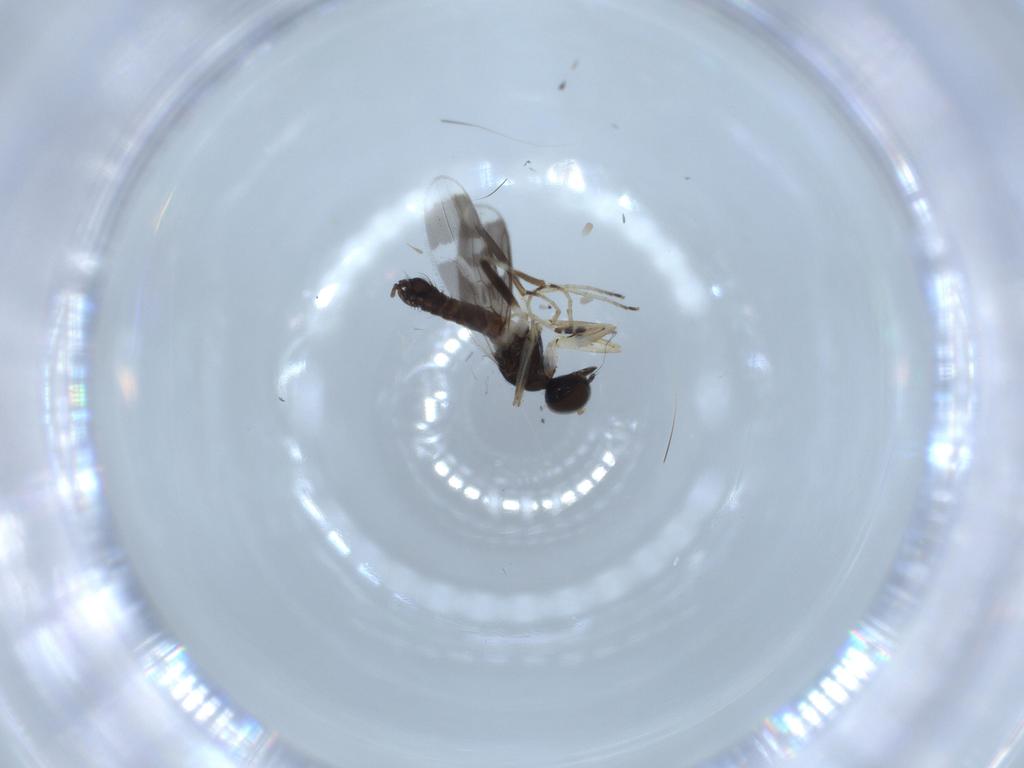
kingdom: Animalia
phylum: Arthropoda
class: Insecta
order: Diptera
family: Hybotidae
